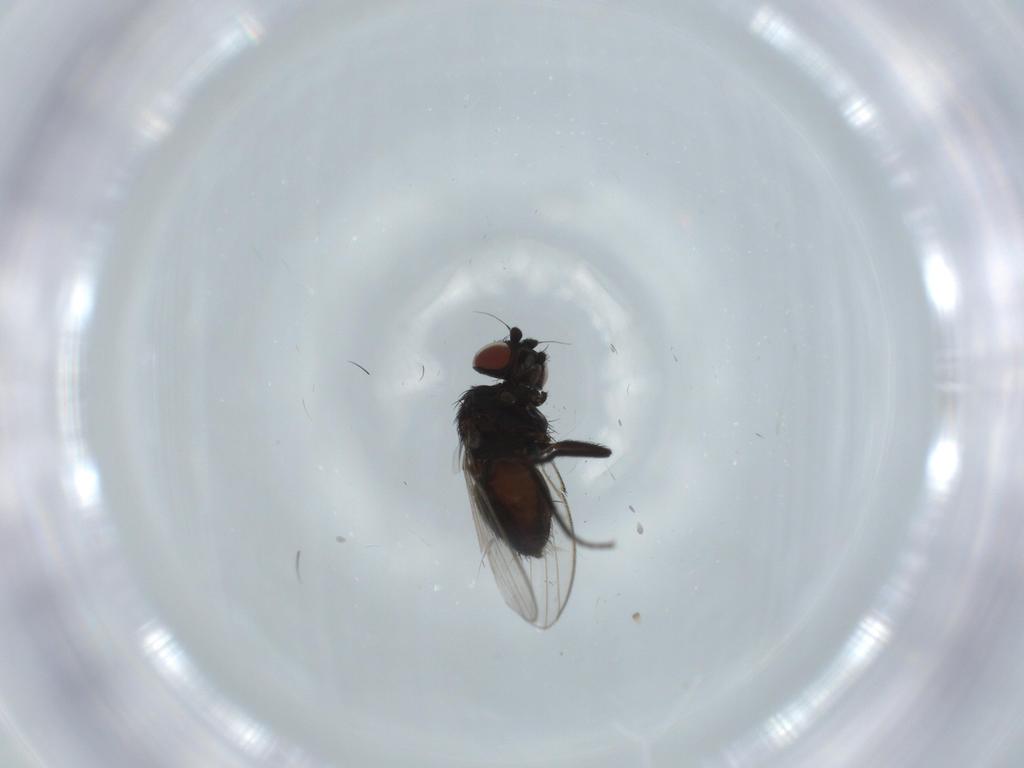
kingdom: Animalia
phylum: Arthropoda
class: Insecta
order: Diptera
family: Milichiidae
